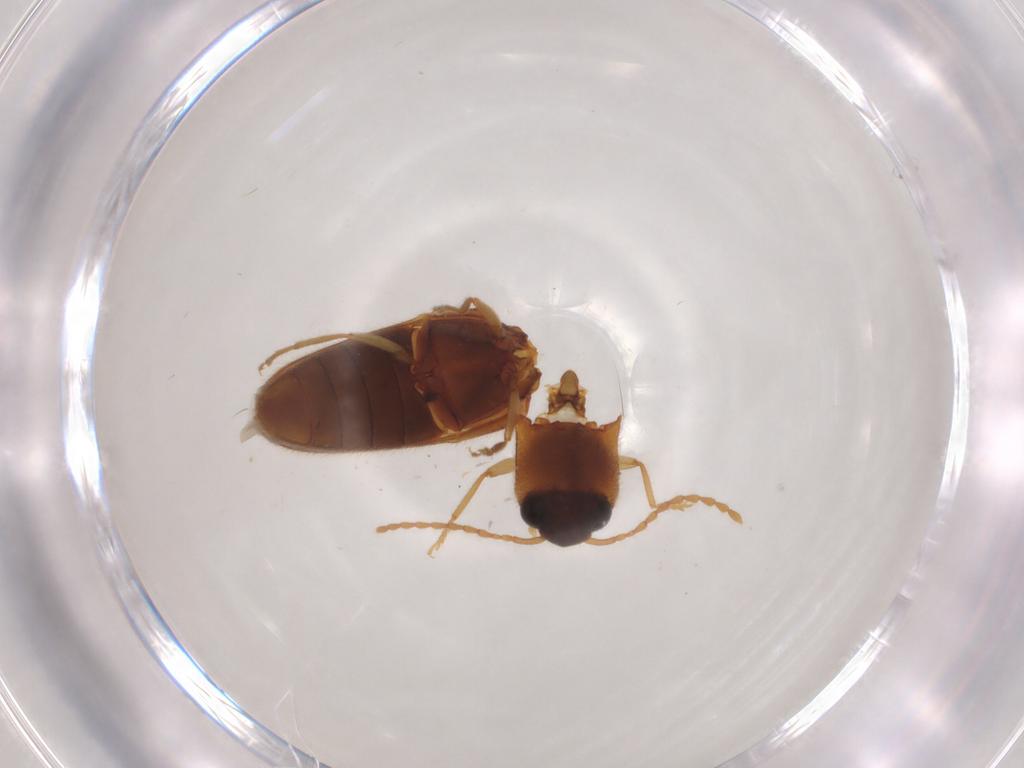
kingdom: Animalia
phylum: Arthropoda
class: Insecta
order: Coleoptera
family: Elateridae
